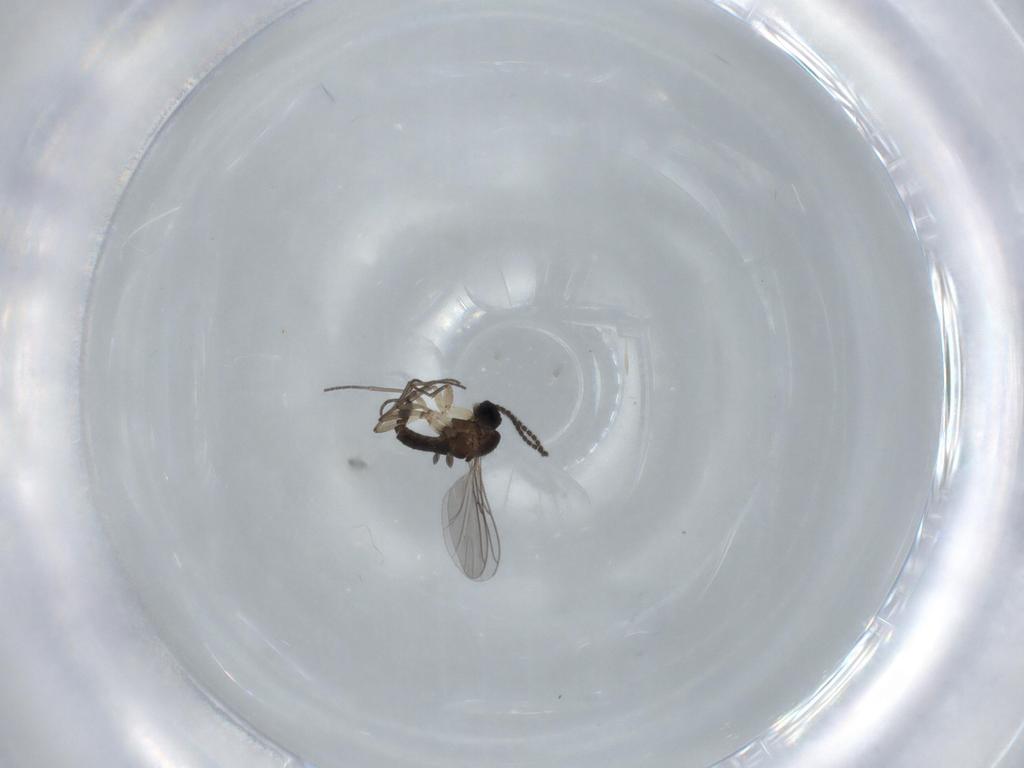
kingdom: Animalia
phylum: Arthropoda
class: Insecta
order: Diptera
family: Sciaridae
